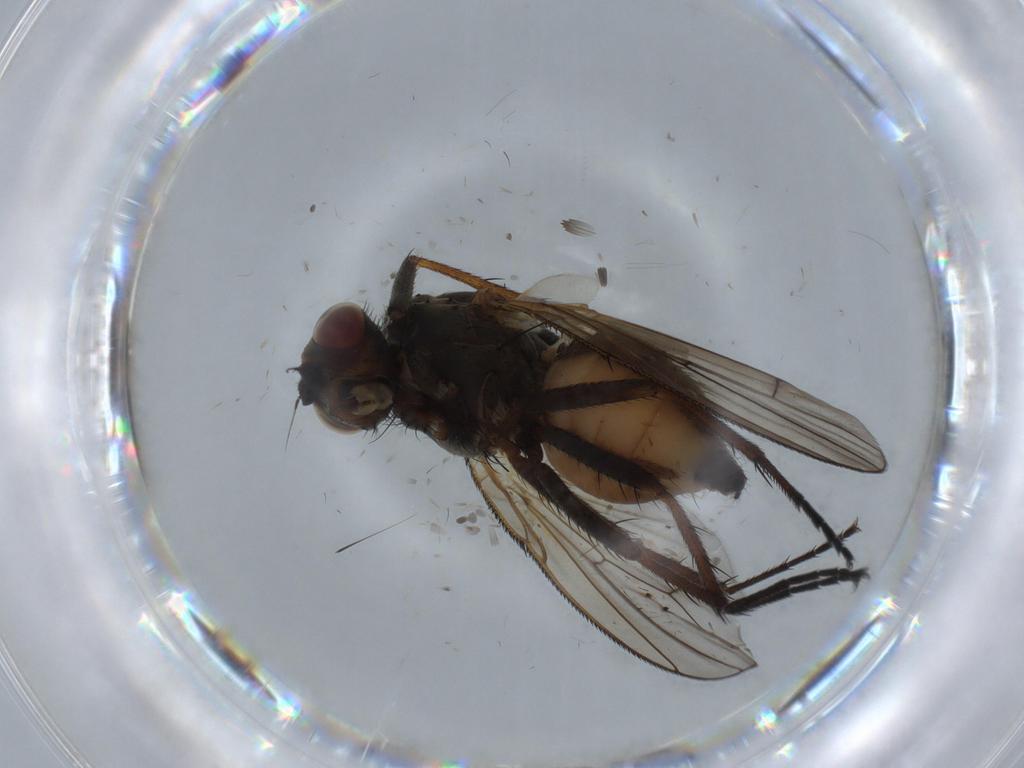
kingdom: Animalia
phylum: Arthropoda
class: Insecta
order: Diptera
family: Anthomyiidae
